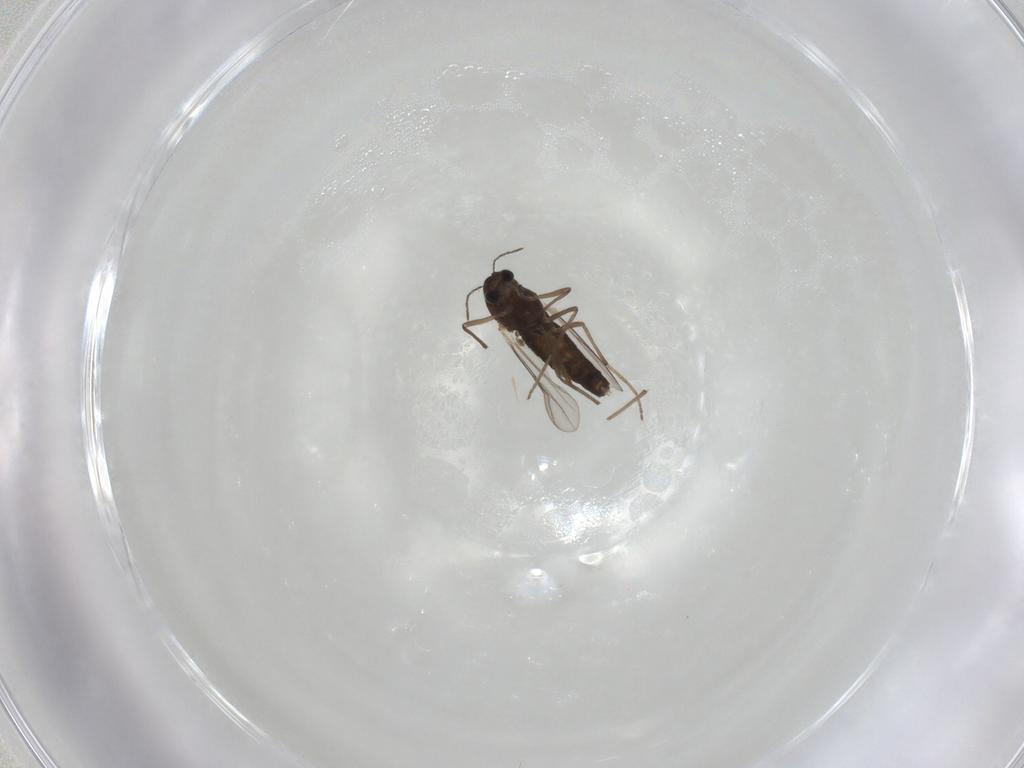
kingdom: Animalia
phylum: Arthropoda
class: Insecta
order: Diptera
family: Chironomidae
